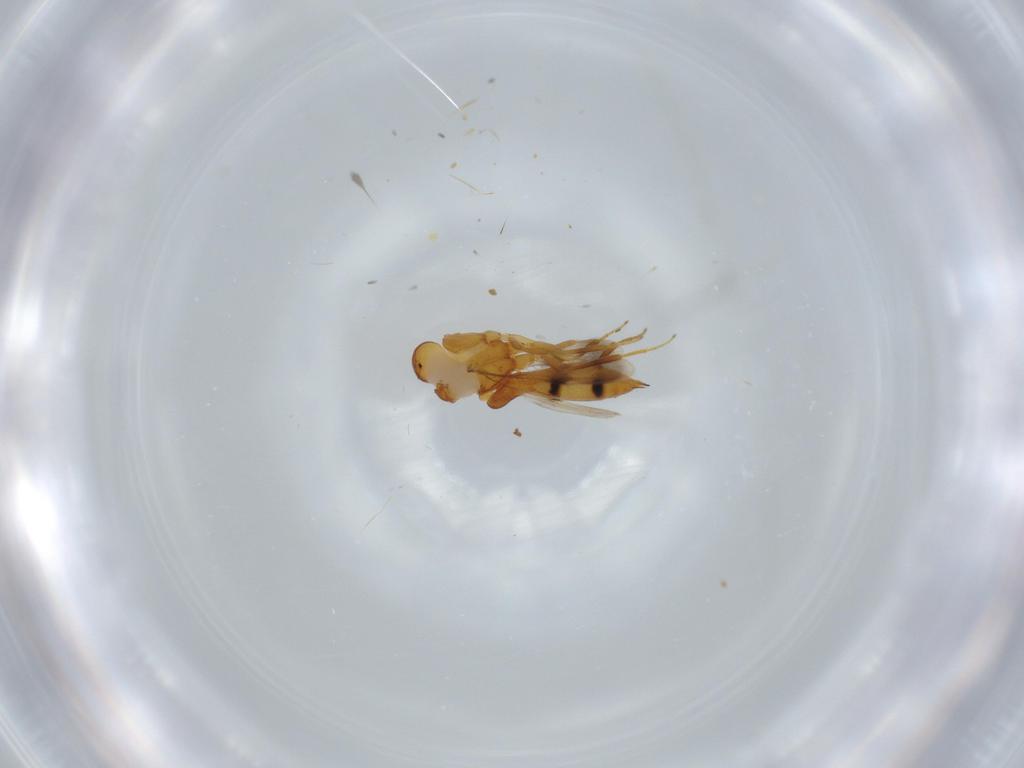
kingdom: Animalia
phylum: Arthropoda
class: Insecta
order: Hymenoptera
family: Scelionidae
